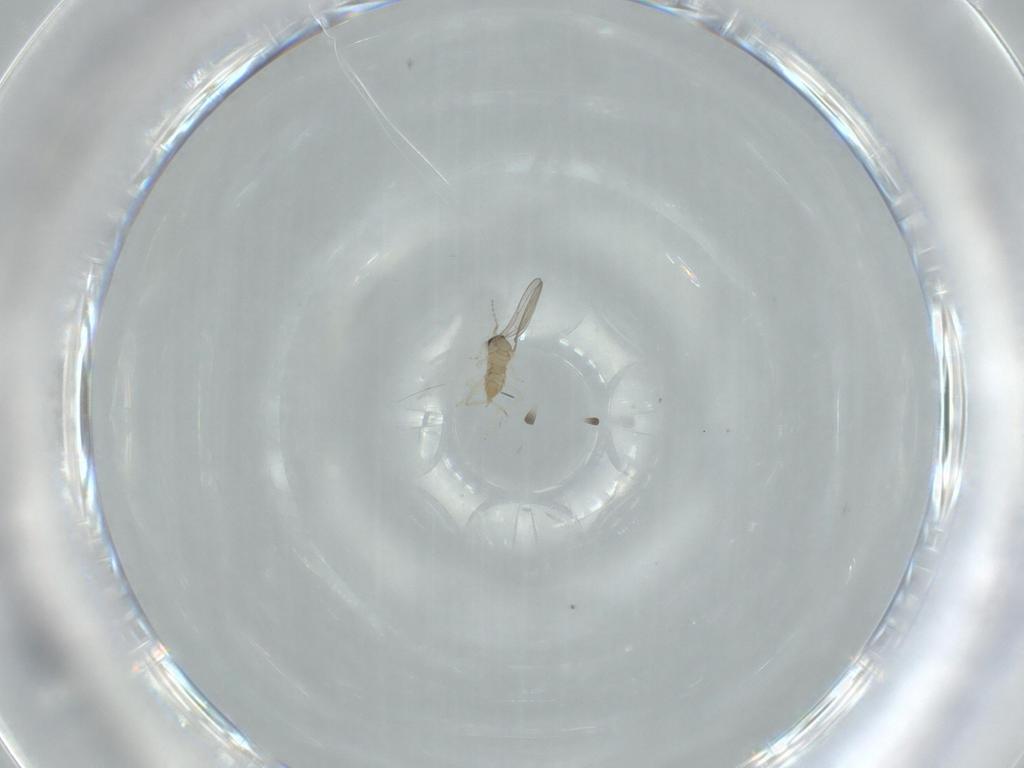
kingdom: Animalia
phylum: Arthropoda
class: Insecta
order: Diptera
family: Cecidomyiidae
